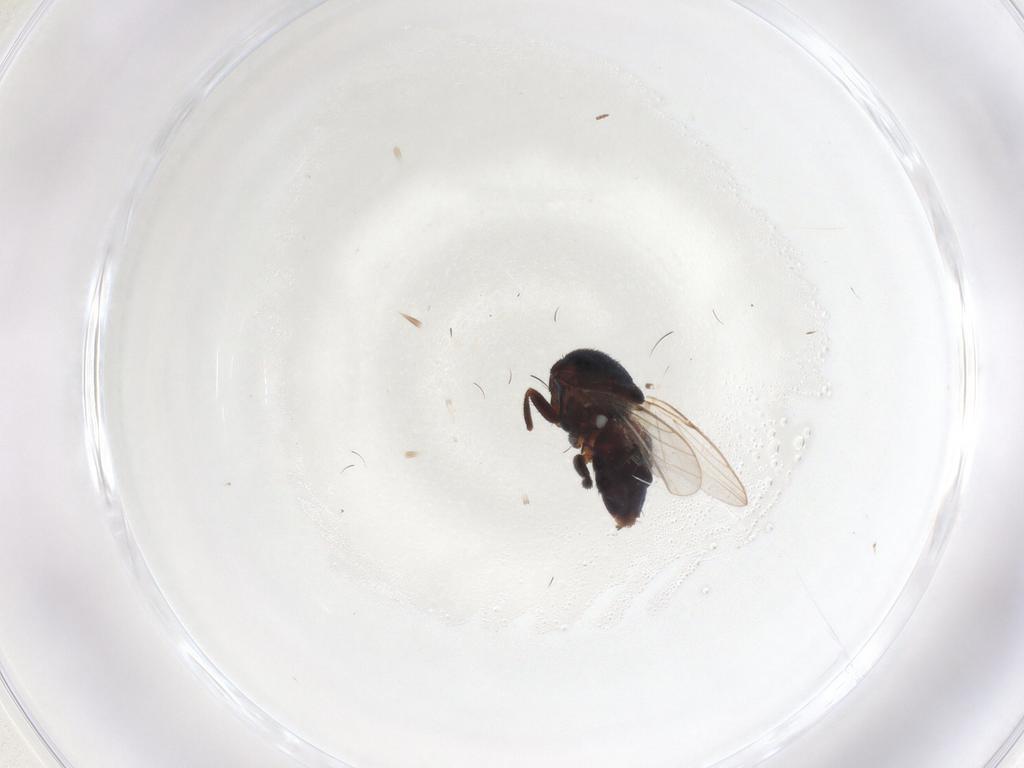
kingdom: Animalia
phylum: Arthropoda
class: Insecta
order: Diptera
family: Chloropidae
